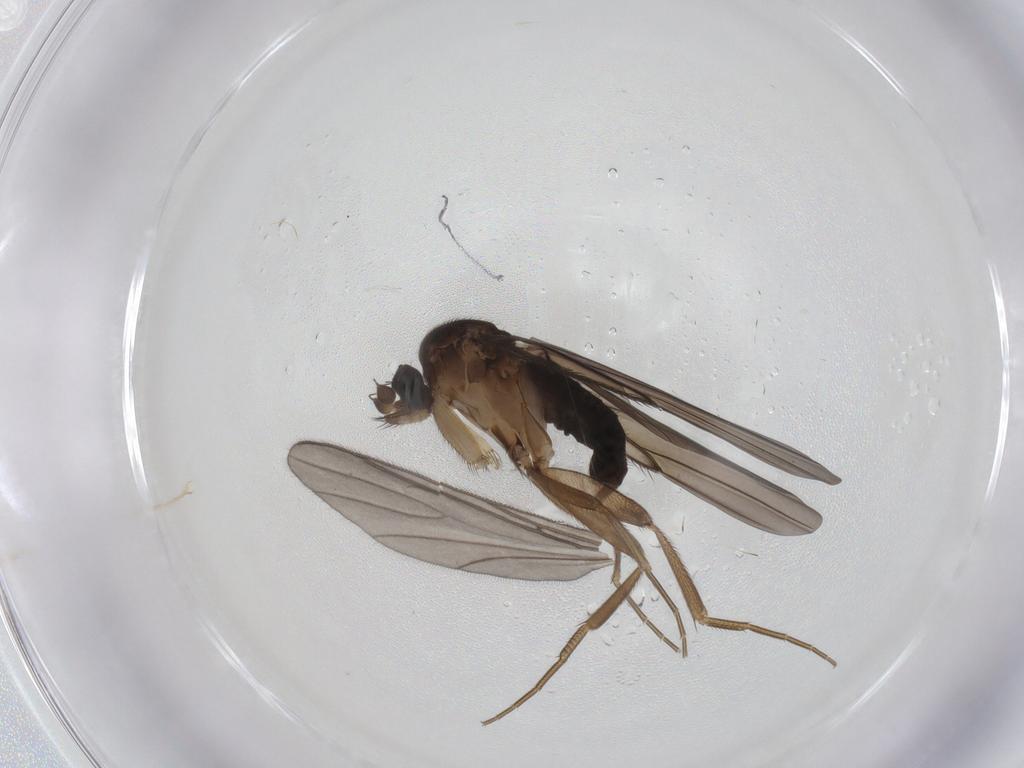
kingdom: Animalia
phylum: Arthropoda
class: Insecta
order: Diptera
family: Phoridae
